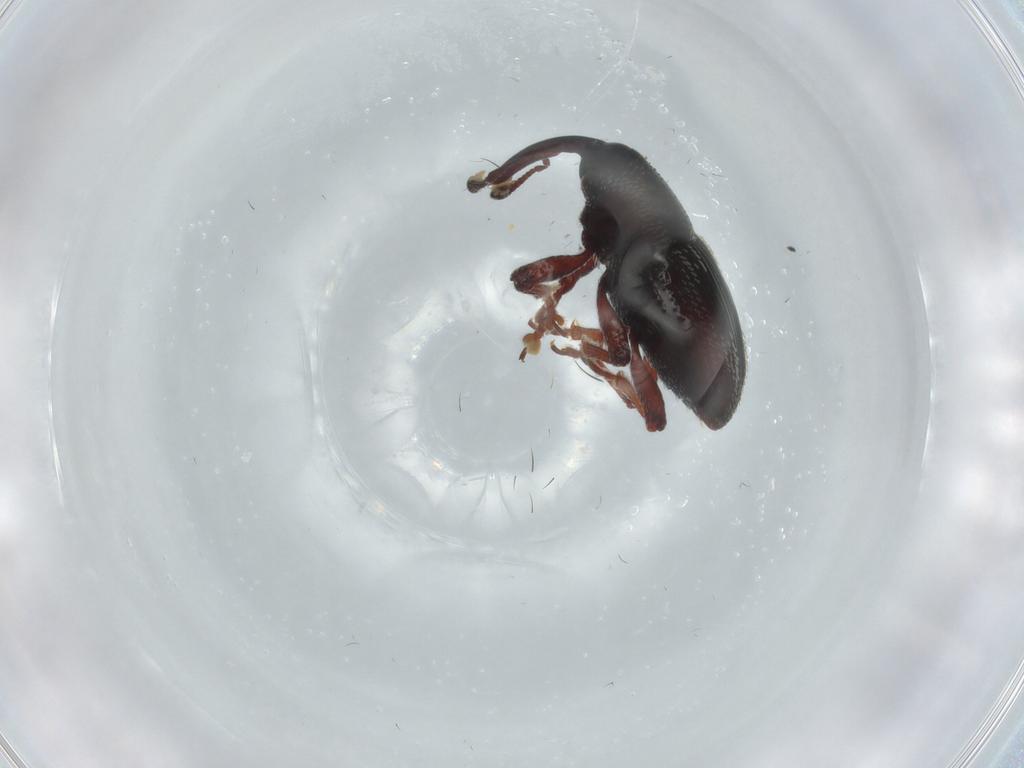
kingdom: Animalia
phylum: Arthropoda
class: Insecta
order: Coleoptera
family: Curculionidae
